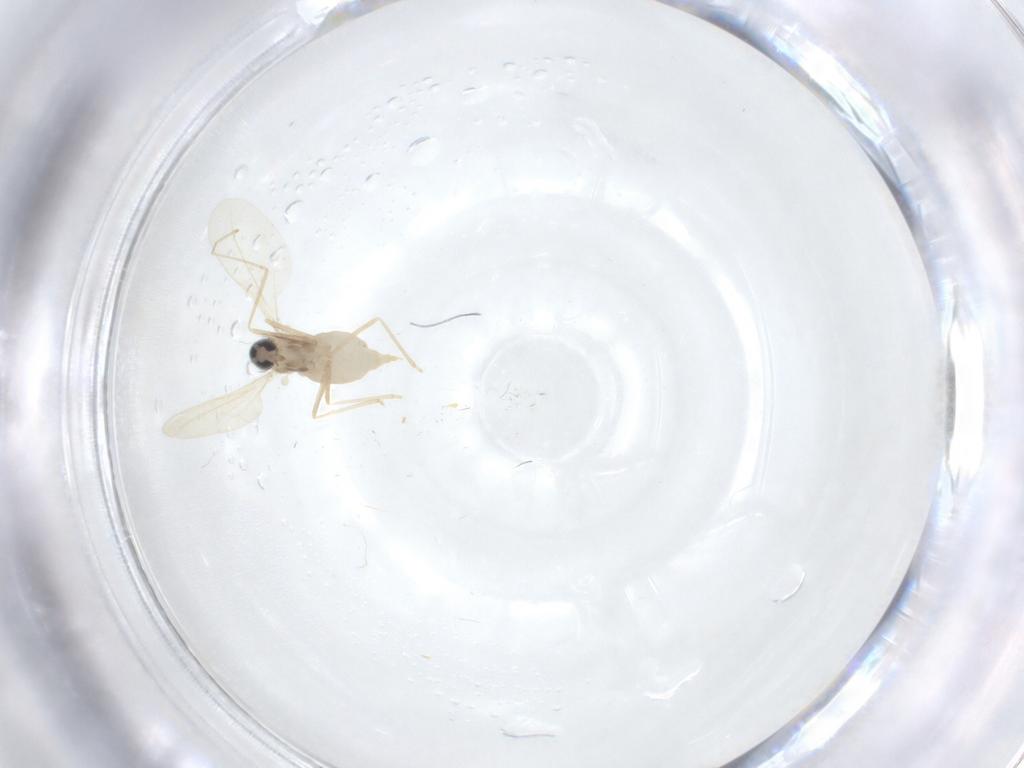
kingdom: Animalia
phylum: Arthropoda
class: Insecta
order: Diptera
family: Cecidomyiidae
